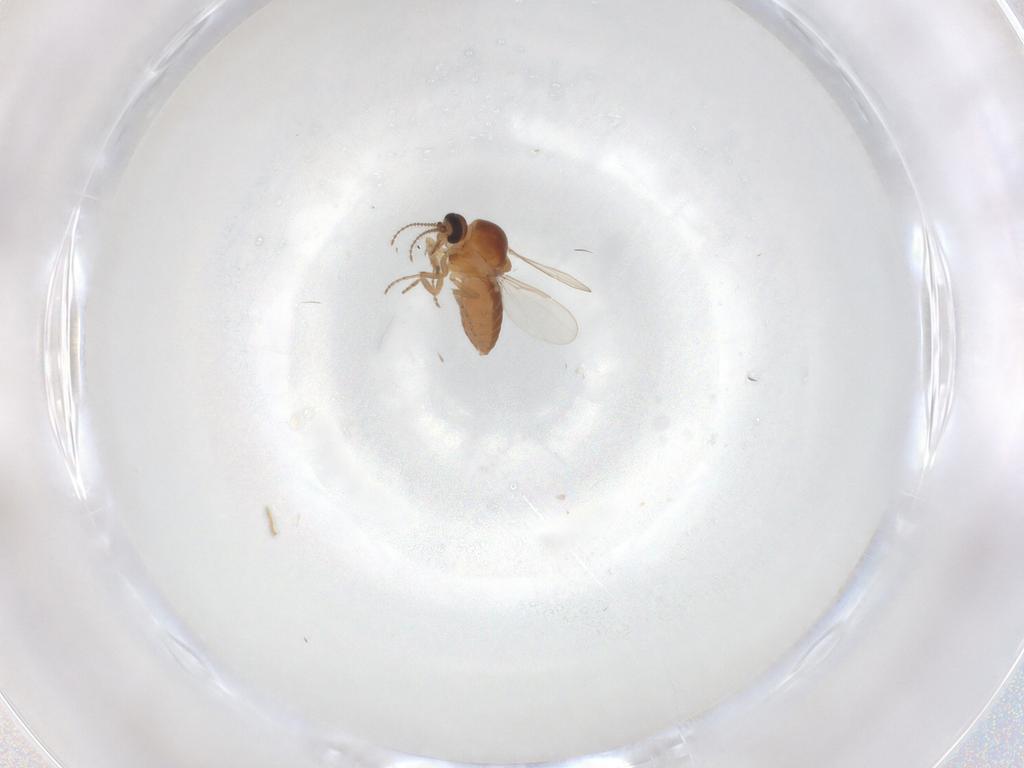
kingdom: Animalia
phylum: Arthropoda
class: Insecta
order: Diptera
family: Ceratopogonidae
